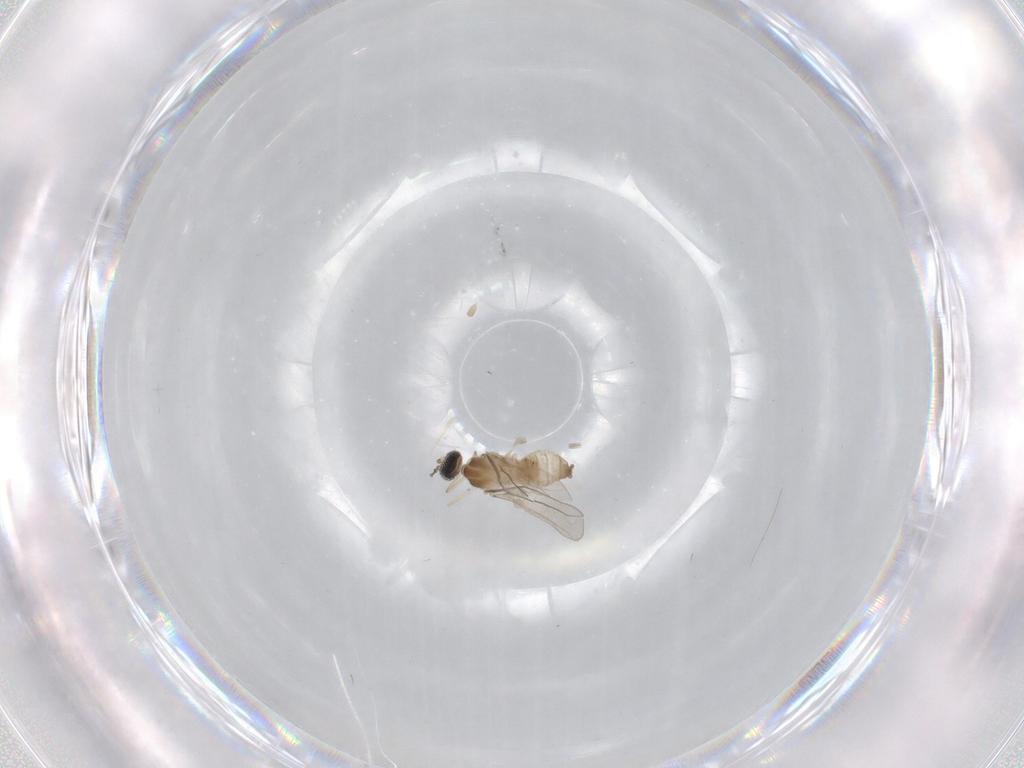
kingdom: Animalia
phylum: Arthropoda
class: Insecta
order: Diptera
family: Cecidomyiidae
